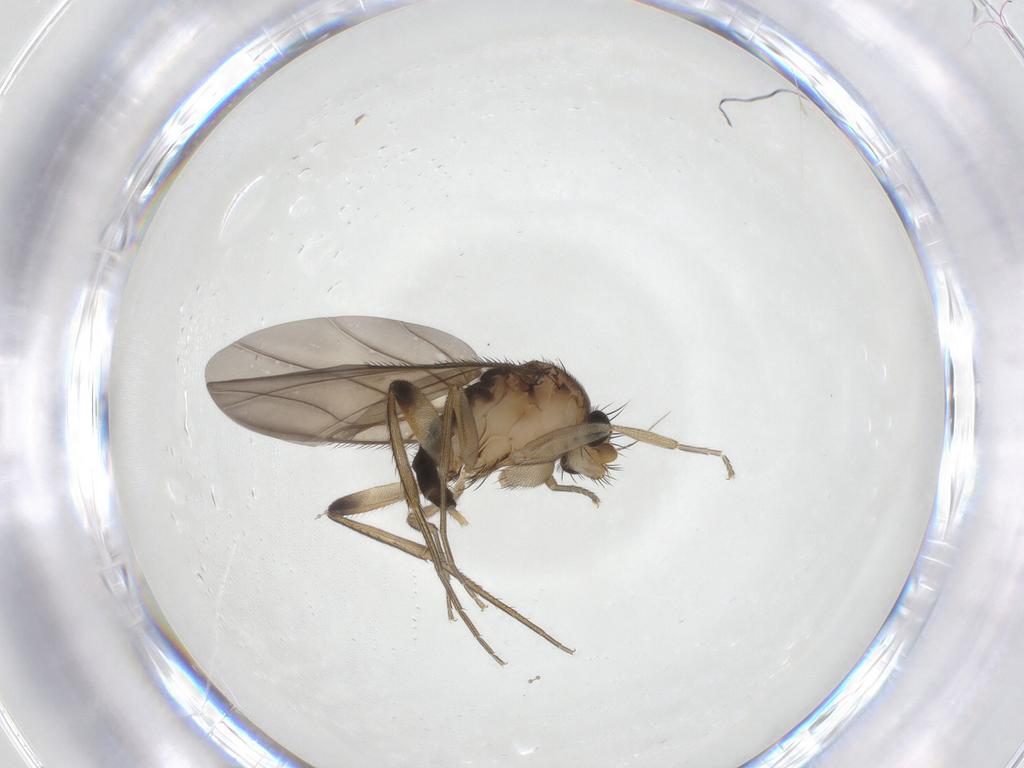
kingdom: Animalia
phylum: Arthropoda
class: Insecta
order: Diptera
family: Phoridae
